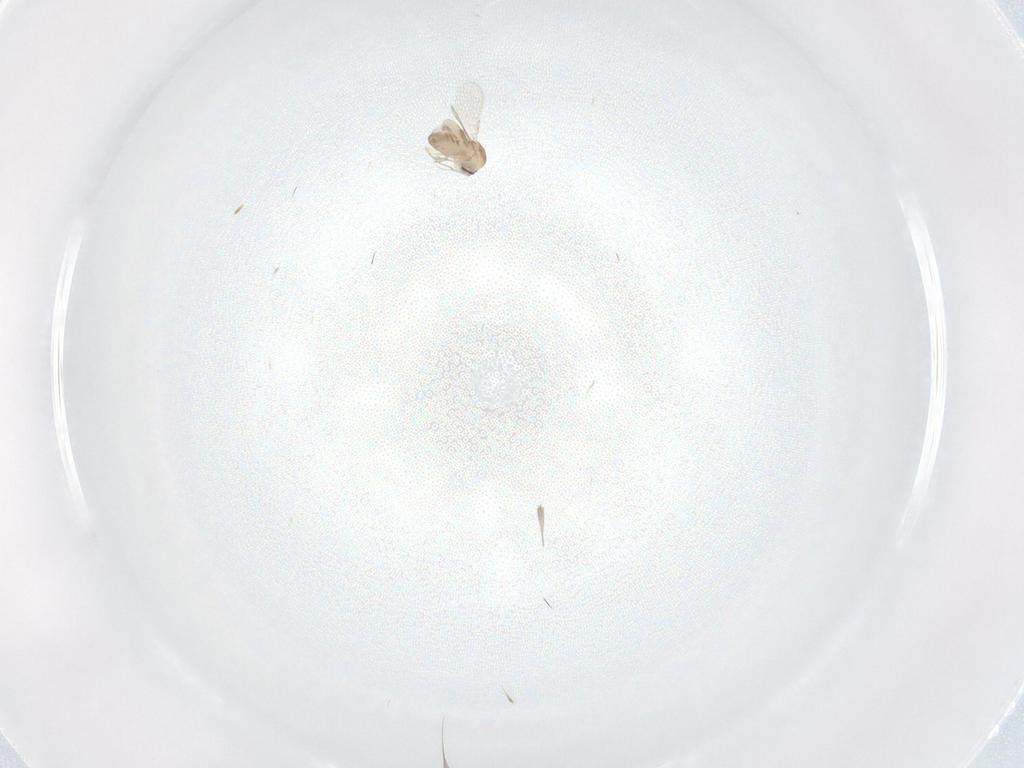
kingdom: Animalia
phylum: Arthropoda
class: Insecta
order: Diptera
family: Ceratopogonidae
